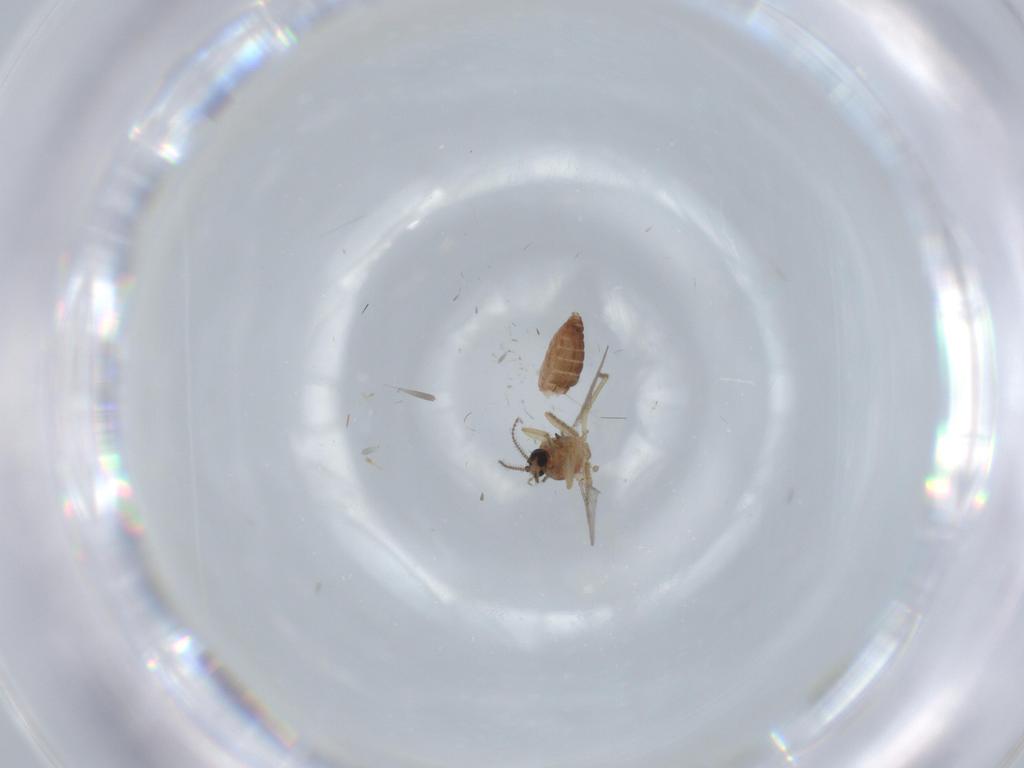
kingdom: Animalia
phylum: Arthropoda
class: Insecta
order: Diptera
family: Ceratopogonidae
